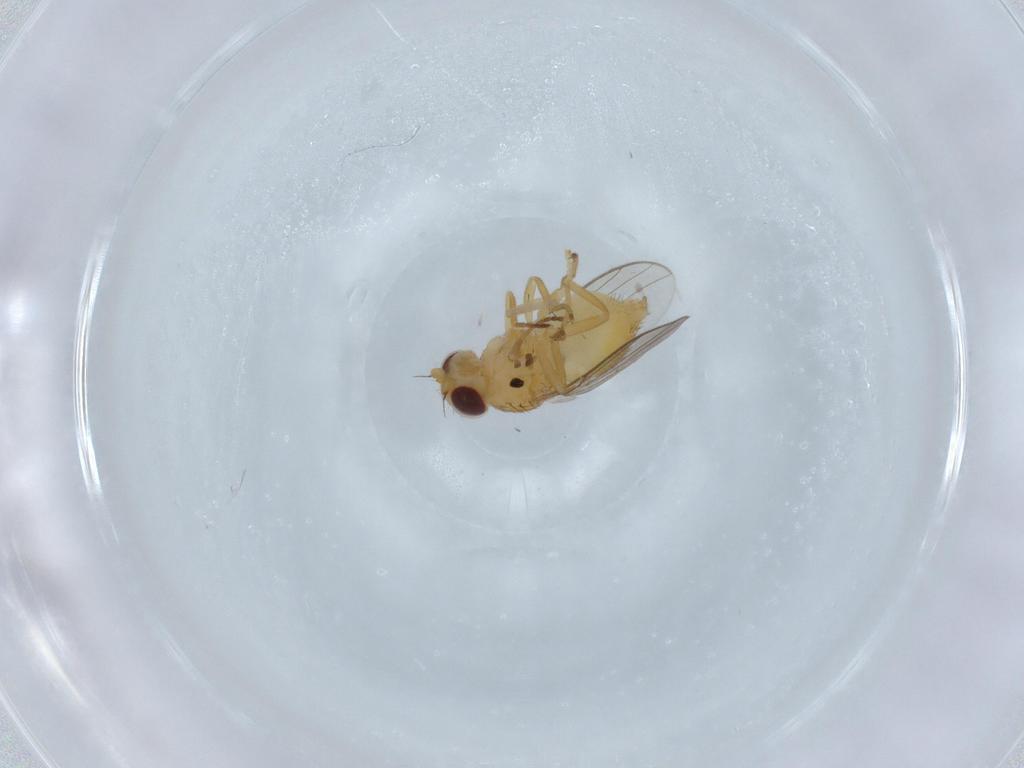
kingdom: Animalia
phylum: Arthropoda
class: Insecta
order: Diptera
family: Chloropidae
